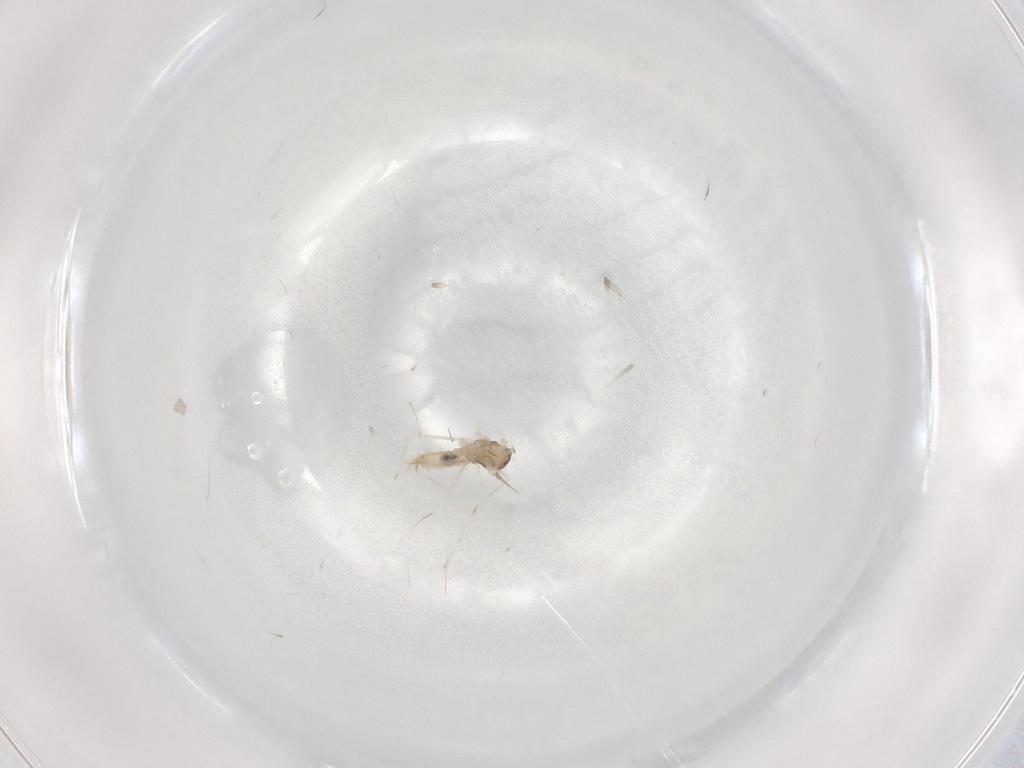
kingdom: Animalia
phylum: Arthropoda
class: Insecta
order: Diptera
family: Cecidomyiidae
